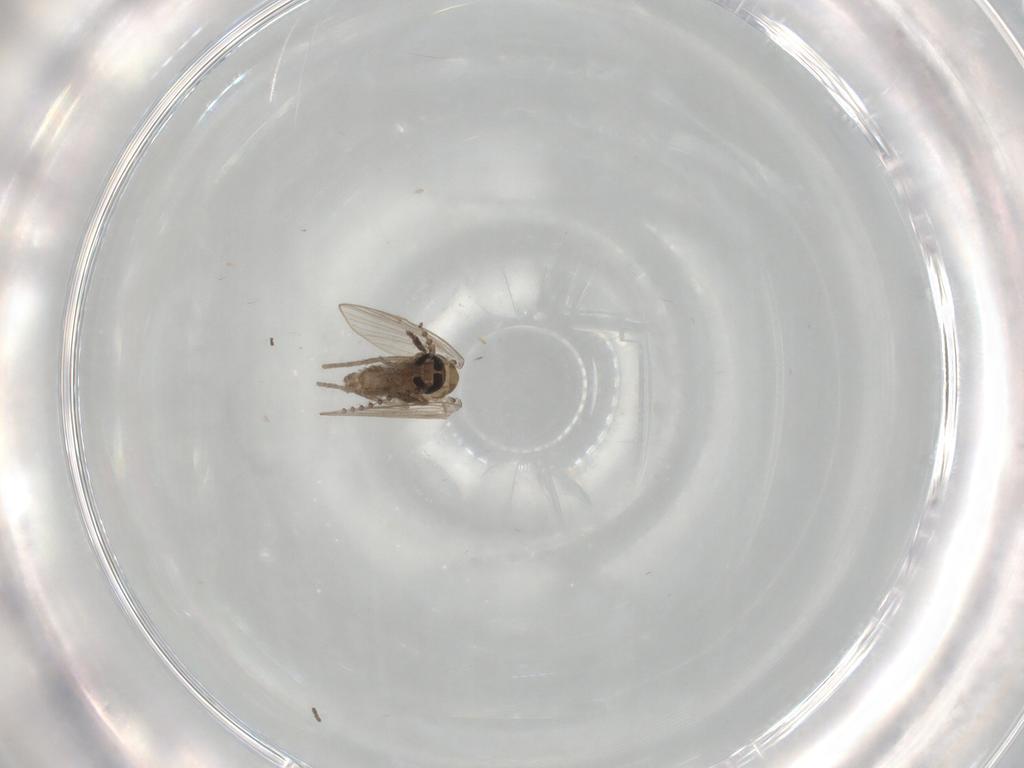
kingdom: Animalia
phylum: Arthropoda
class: Insecta
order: Diptera
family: Psychodidae
